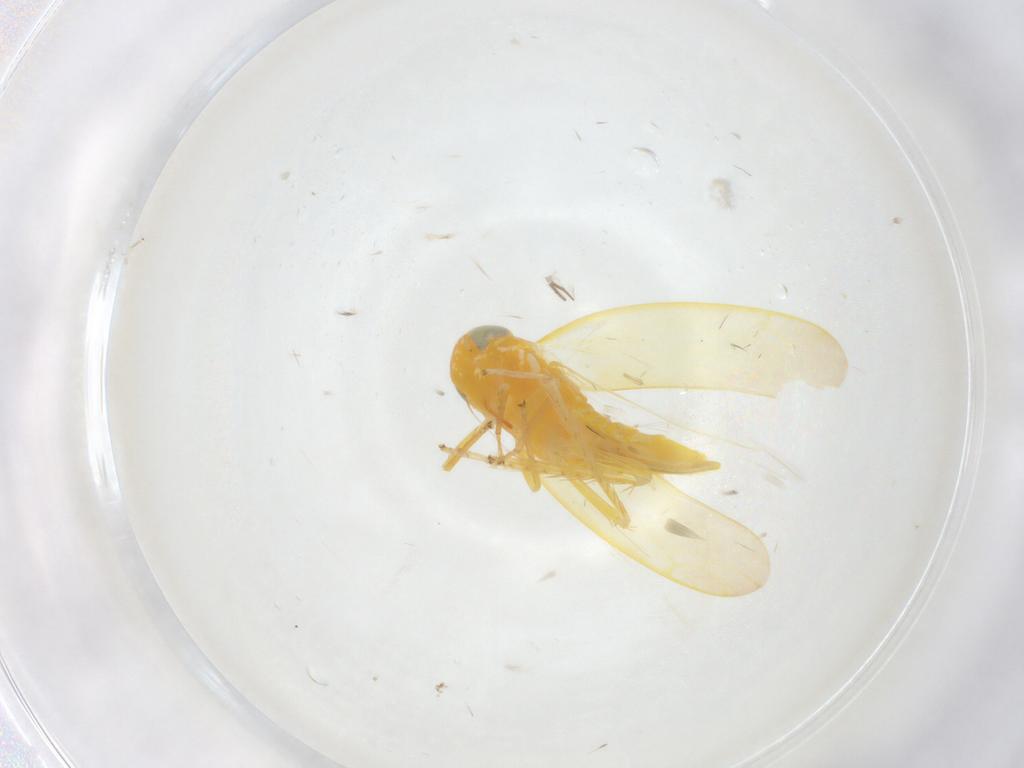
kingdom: Animalia
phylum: Arthropoda
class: Insecta
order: Hemiptera
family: Cicadellidae
